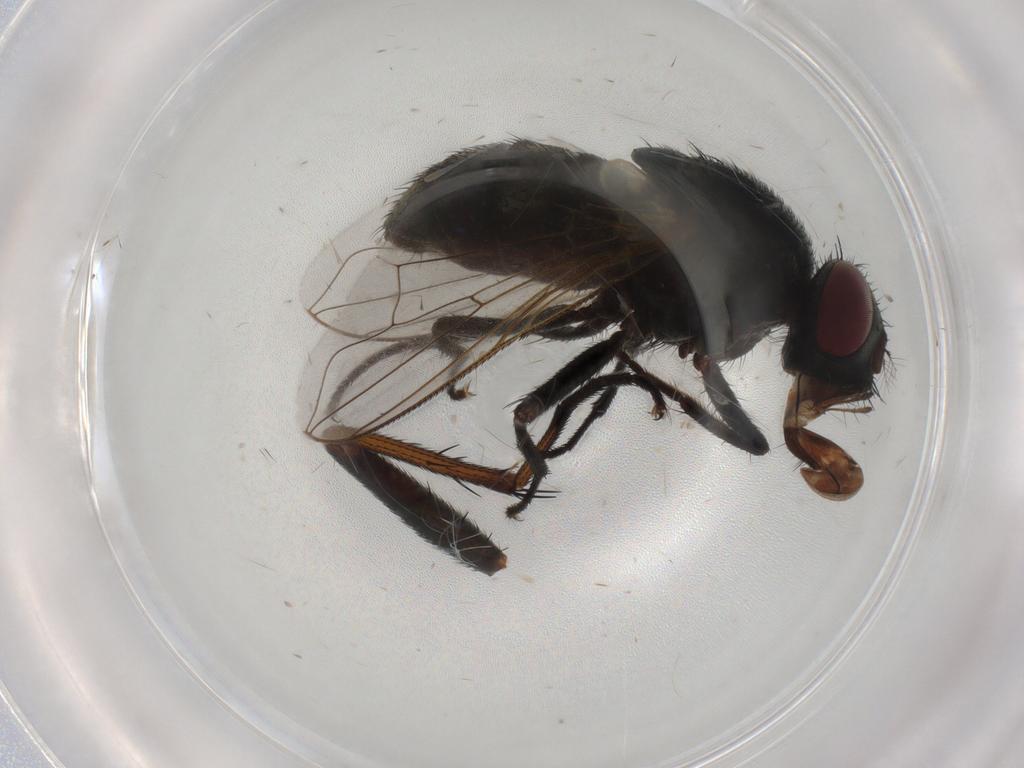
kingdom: Animalia
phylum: Arthropoda
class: Insecta
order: Diptera
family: Muscidae
